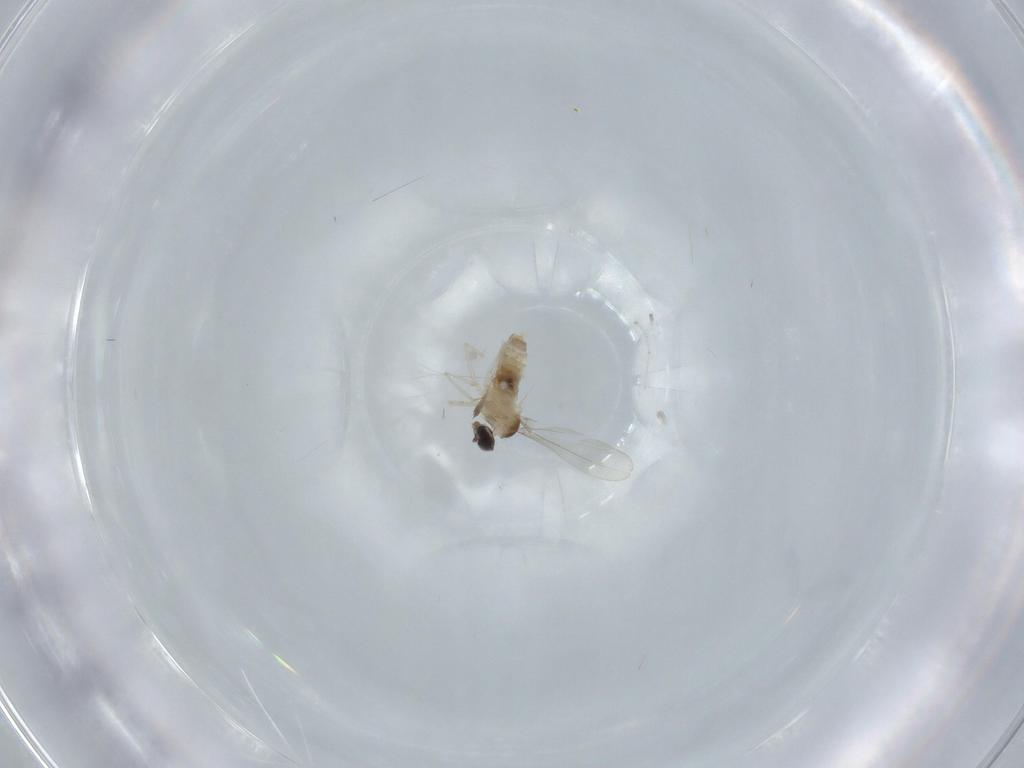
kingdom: Animalia
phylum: Arthropoda
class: Insecta
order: Diptera
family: Cecidomyiidae
